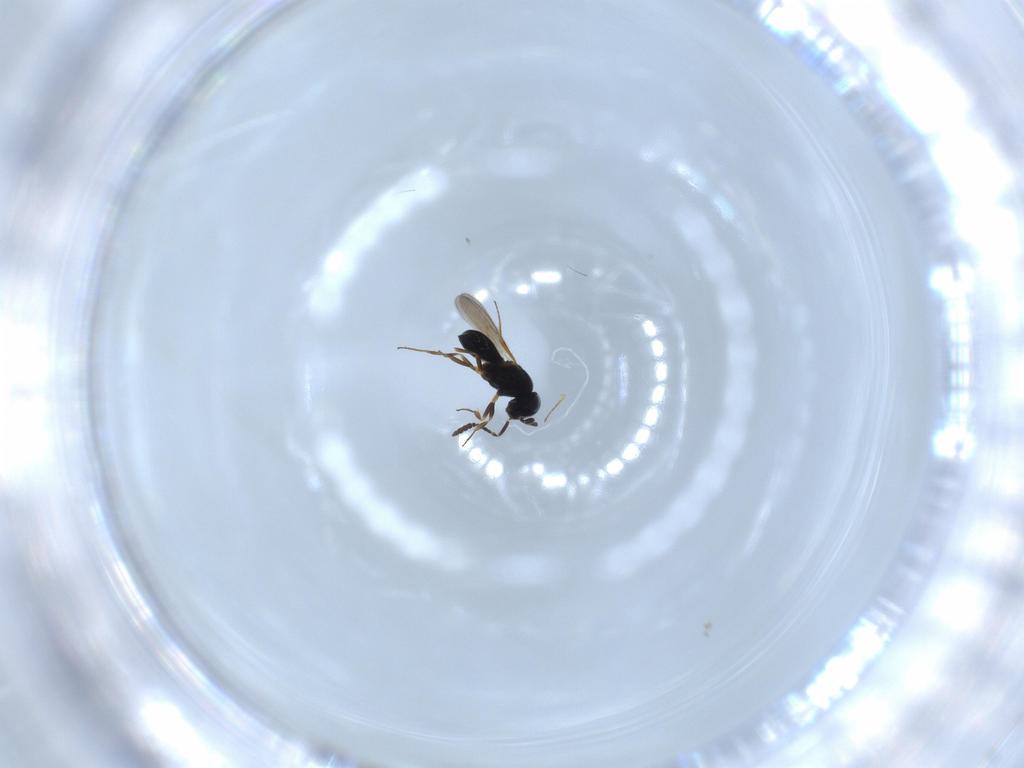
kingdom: Animalia
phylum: Arthropoda
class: Insecta
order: Hymenoptera
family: Scelionidae
